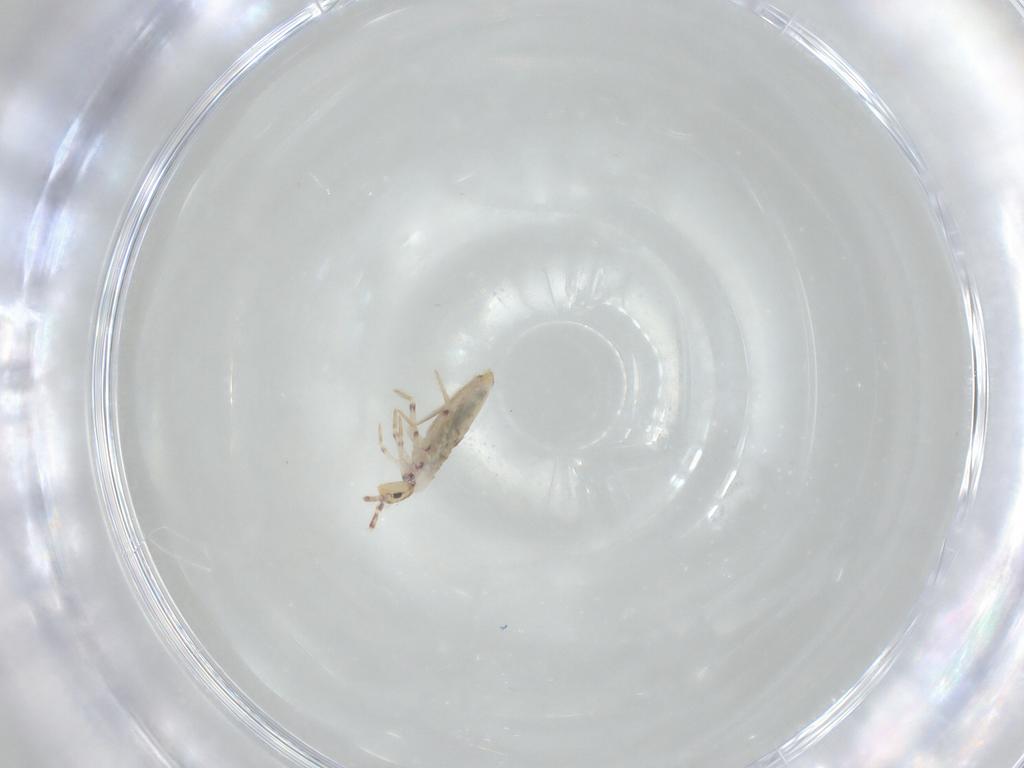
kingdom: Animalia
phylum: Arthropoda
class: Collembola
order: Entomobryomorpha
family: Entomobryidae
